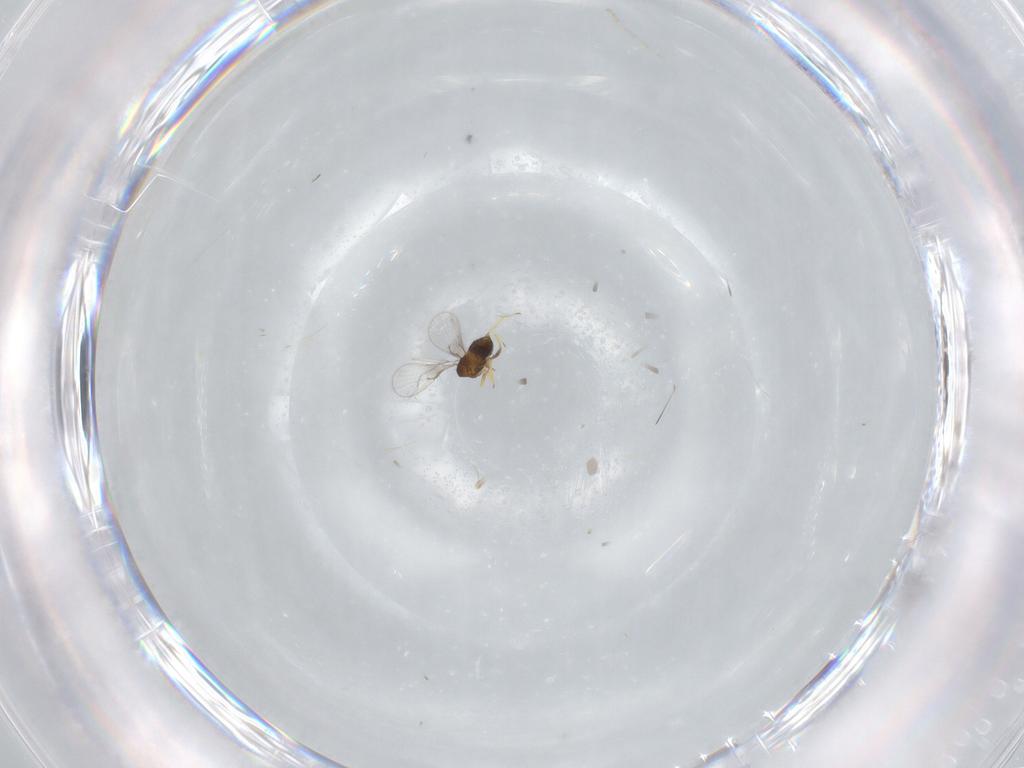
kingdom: Animalia
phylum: Arthropoda
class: Insecta
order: Hymenoptera
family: Trichogrammatidae
